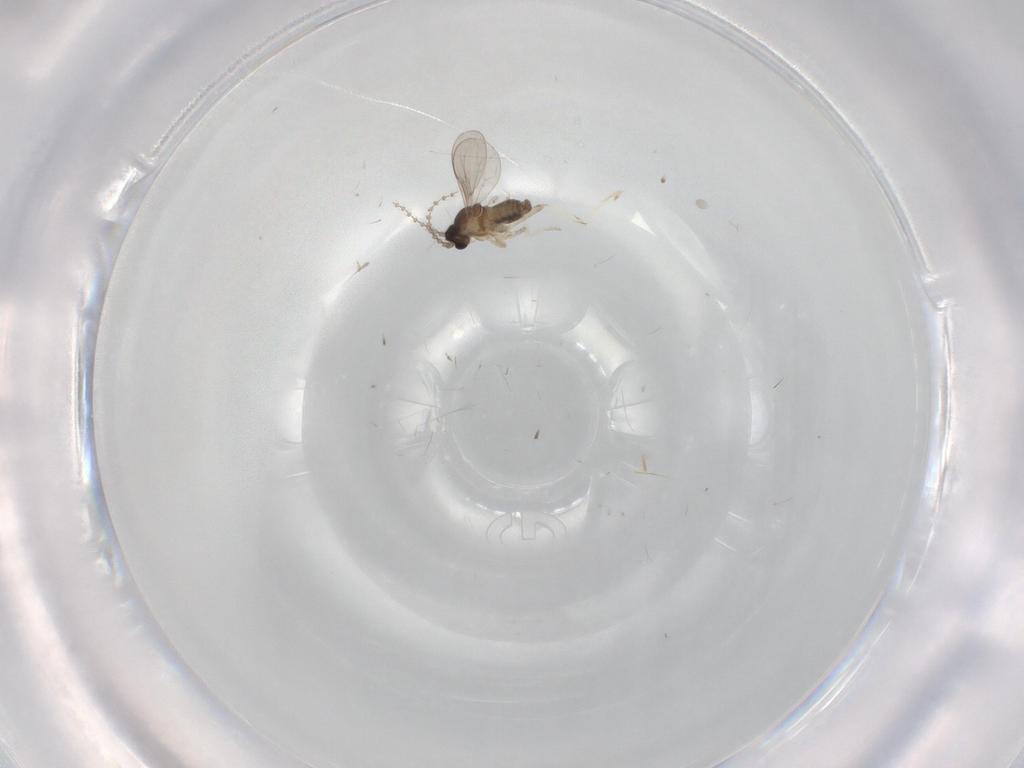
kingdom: Animalia
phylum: Arthropoda
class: Insecta
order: Diptera
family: Cecidomyiidae
